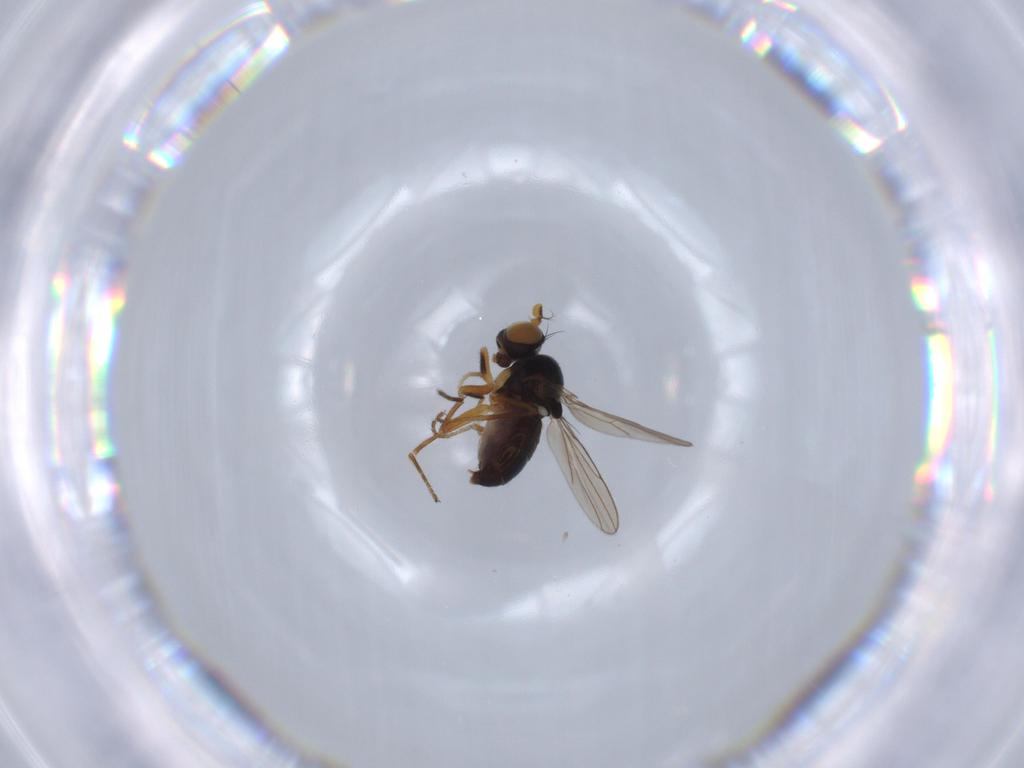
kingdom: Animalia
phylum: Arthropoda
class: Insecta
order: Diptera
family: Ephydridae
